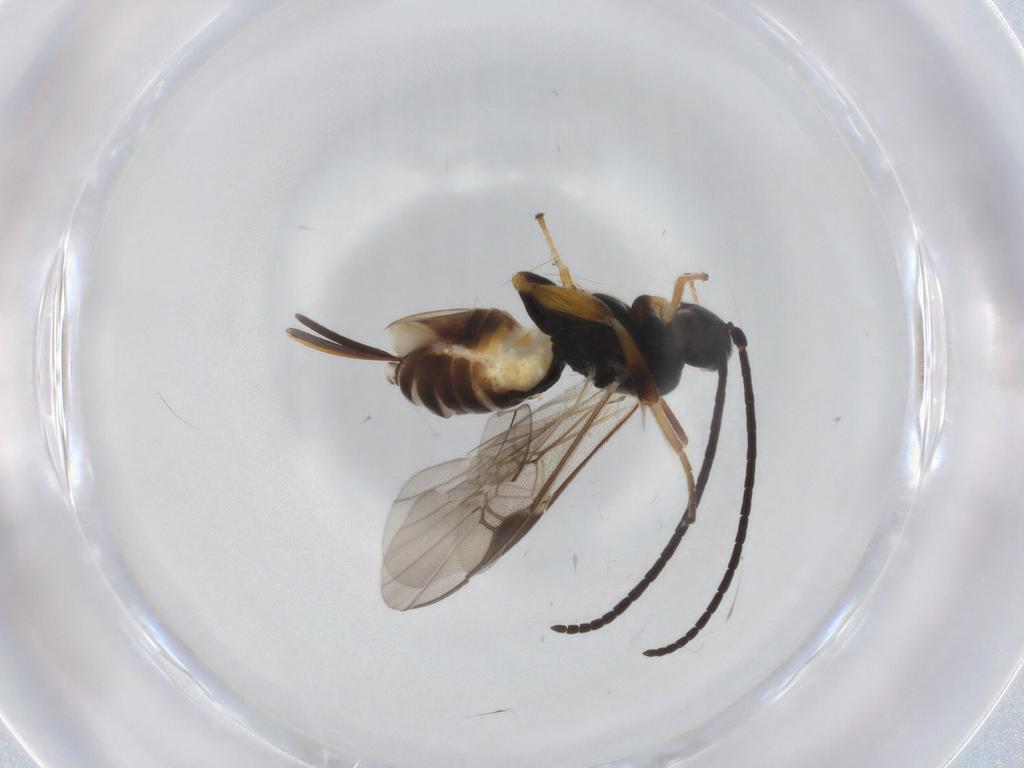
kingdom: Animalia
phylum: Arthropoda
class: Insecta
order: Hymenoptera
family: Braconidae
